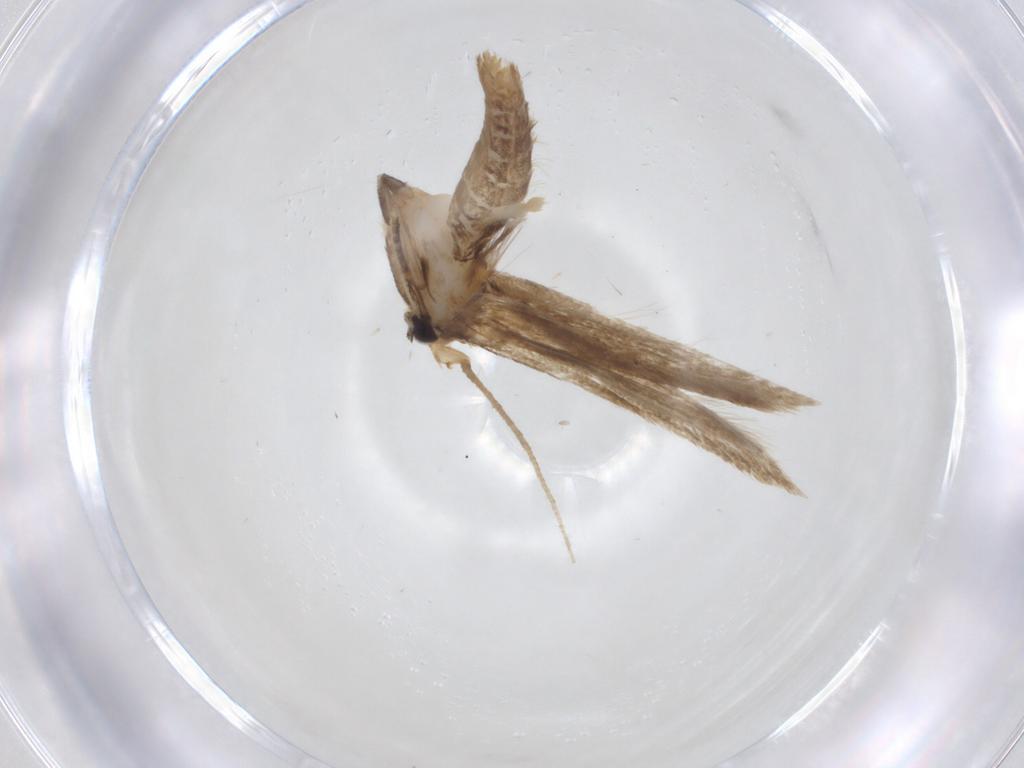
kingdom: Animalia
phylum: Arthropoda
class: Insecta
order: Lepidoptera
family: Tineidae
